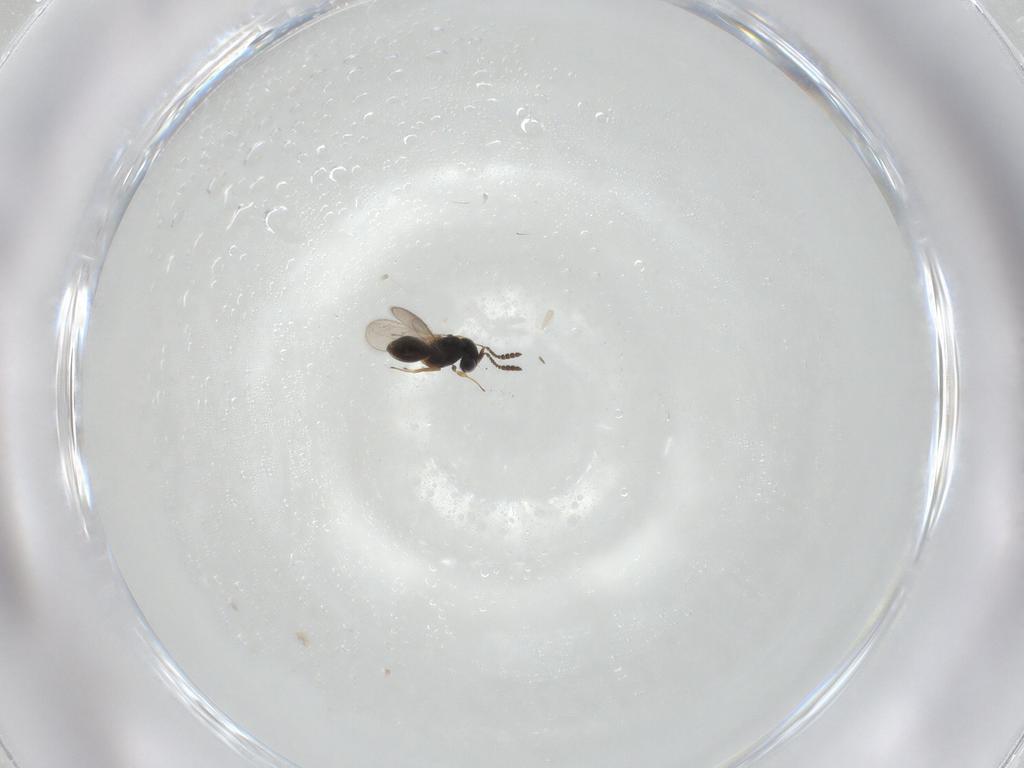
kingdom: Animalia
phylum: Arthropoda
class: Insecta
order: Hymenoptera
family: Scelionidae
